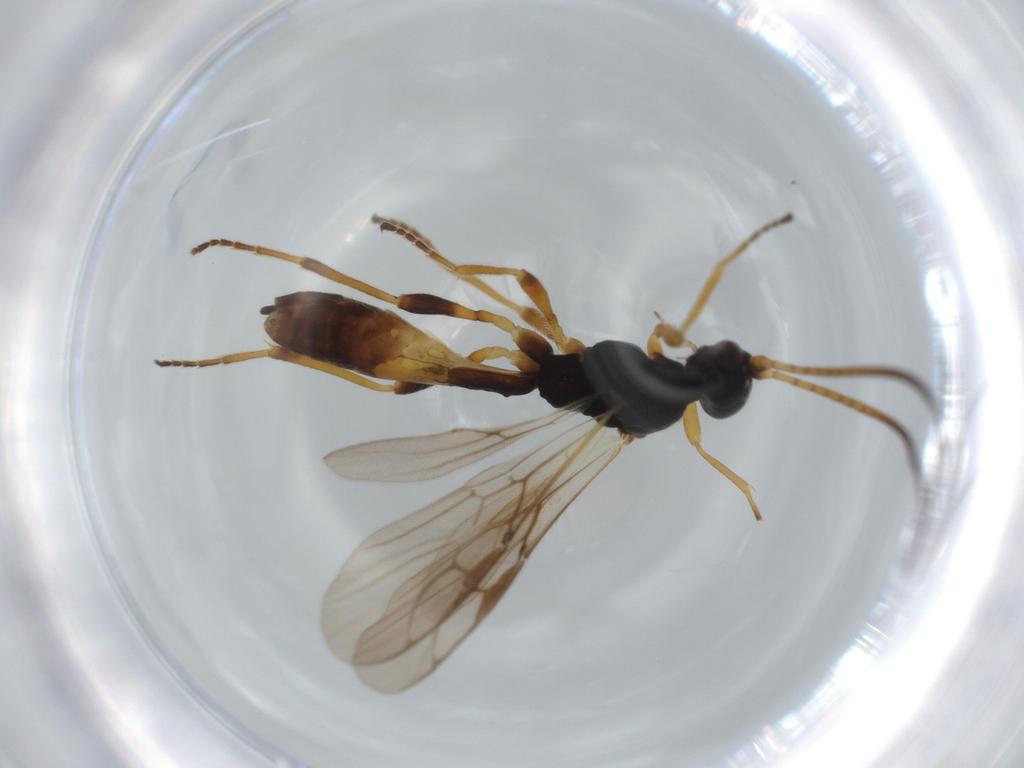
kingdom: Animalia
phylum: Arthropoda
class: Insecta
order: Hymenoptera
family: Braconidae
